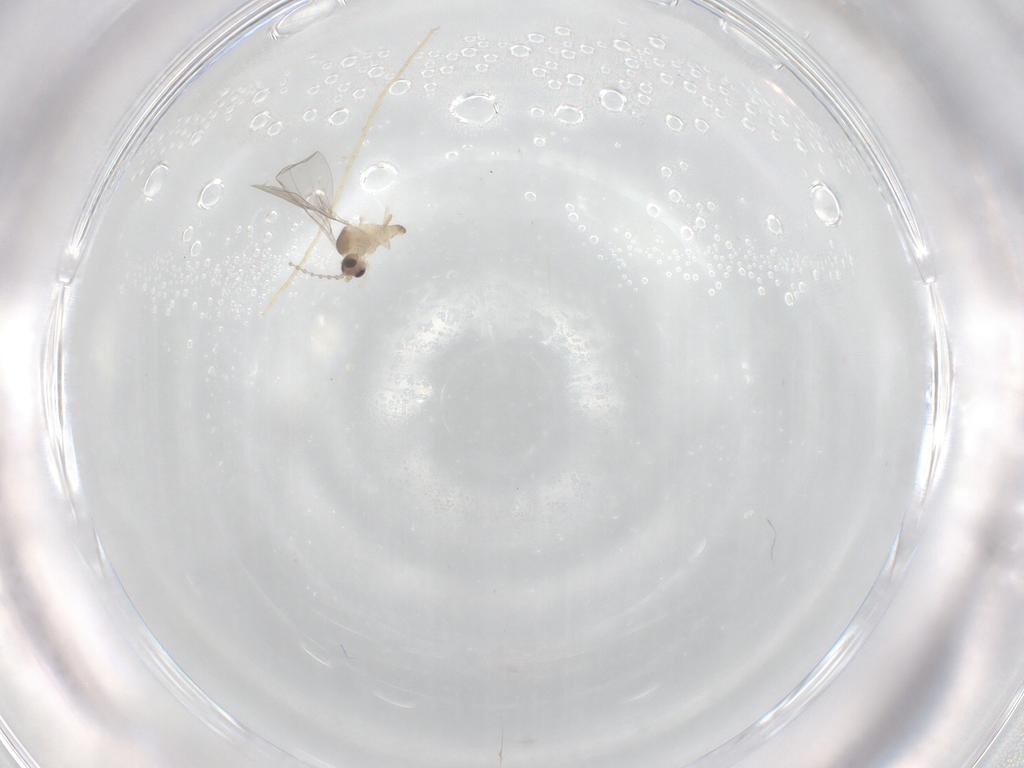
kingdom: Animalia
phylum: Arthropoda
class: Insecta
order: Diptera
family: Cecidomyiidae
